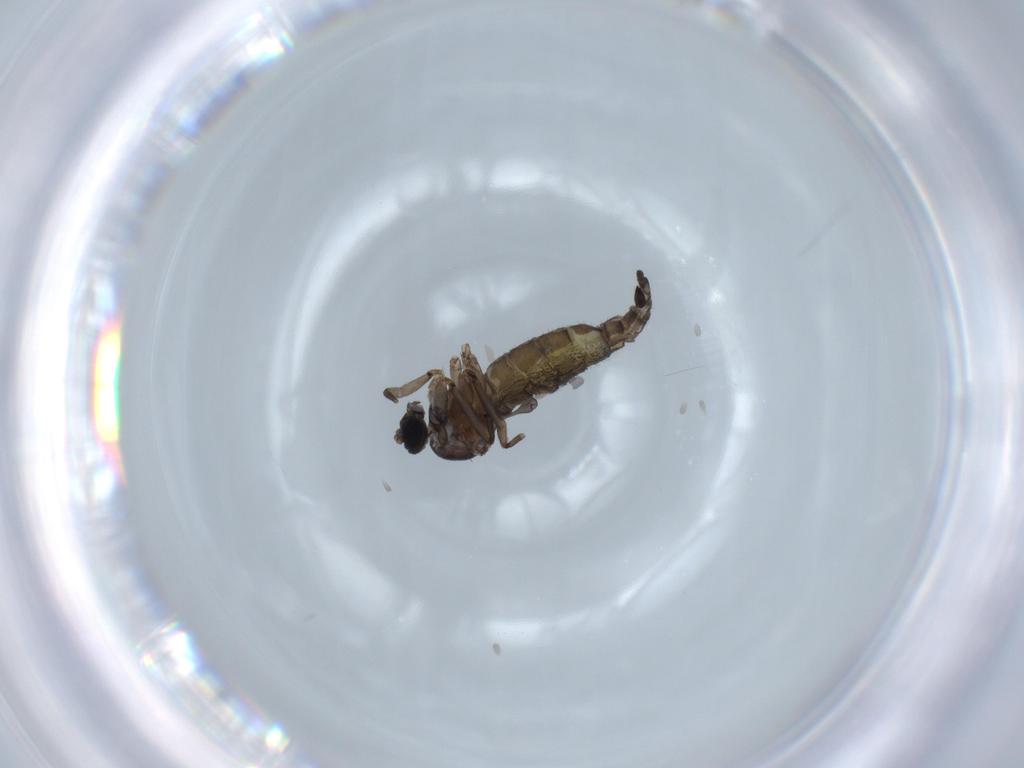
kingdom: Animalia
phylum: Arthropoda
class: Insecta
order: Diptera
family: Sciaridae
